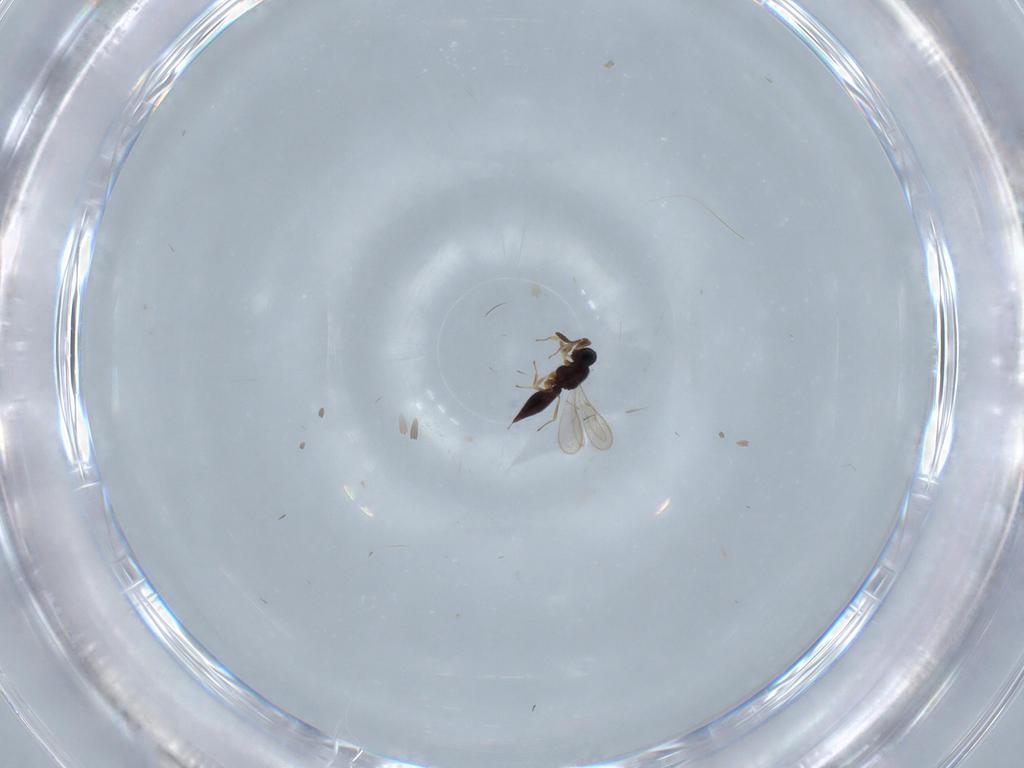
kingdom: Animalia
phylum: Arthropoda
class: Insecta
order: Hymenoptera
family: Scelionidae
